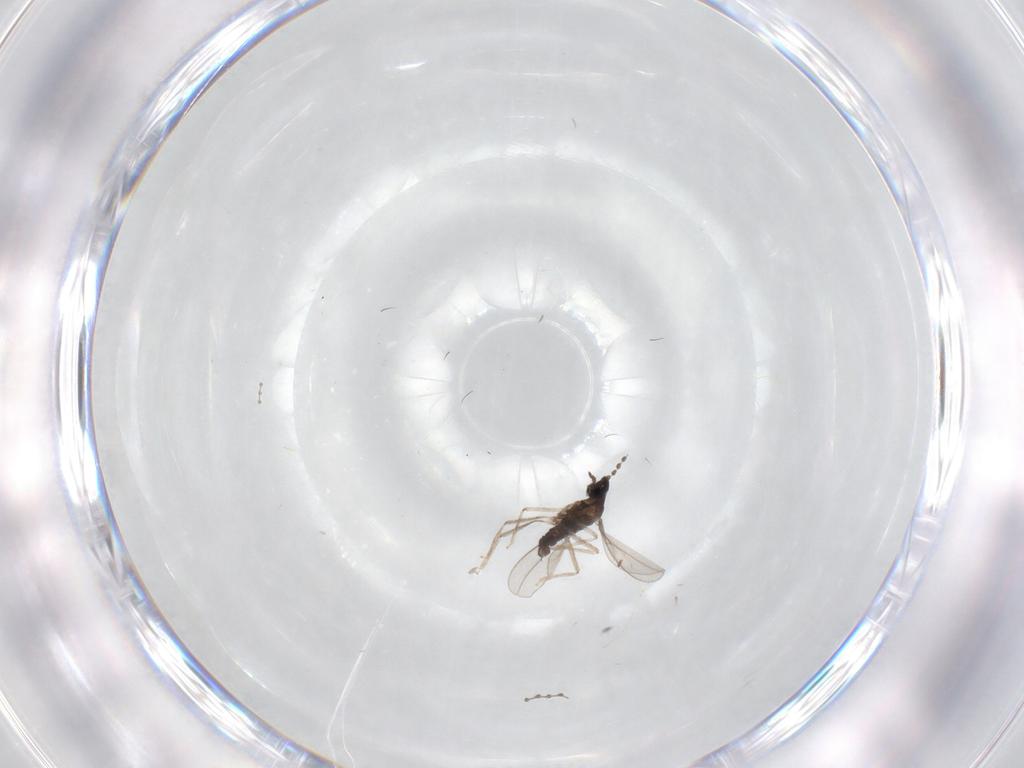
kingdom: Animalia
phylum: Arthropoda
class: Insecta
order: Diptera
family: Cecidomyiidae
